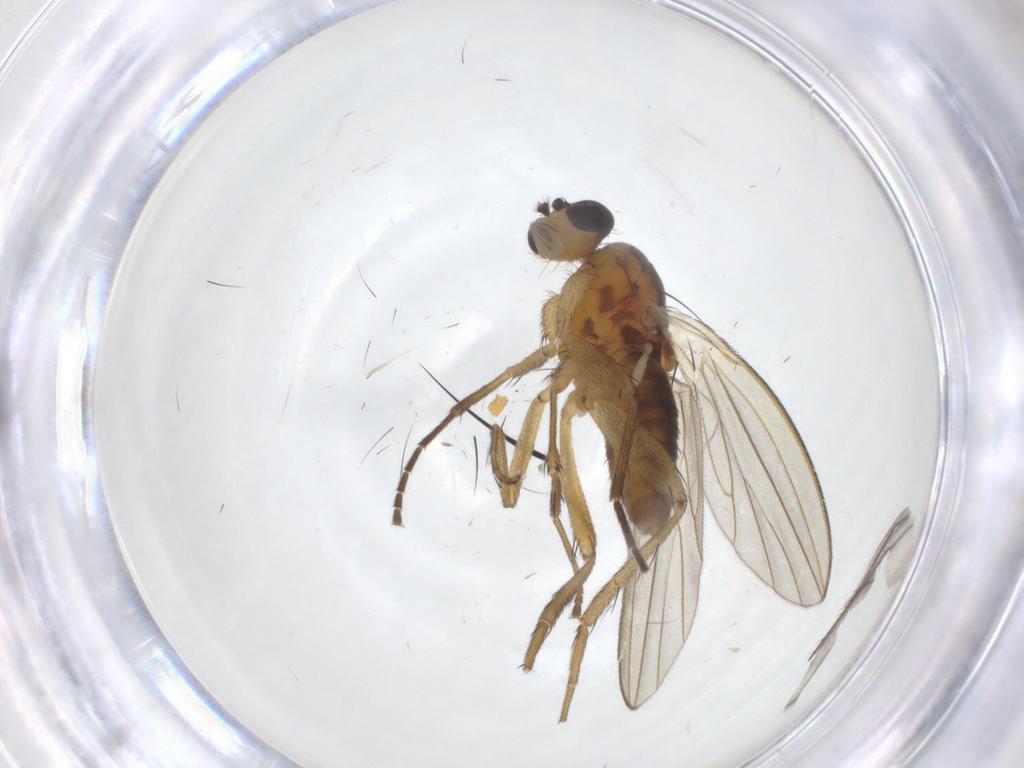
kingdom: Animalia
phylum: Arthropoda
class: Insecta
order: Diptera
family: Lonchopteridae
